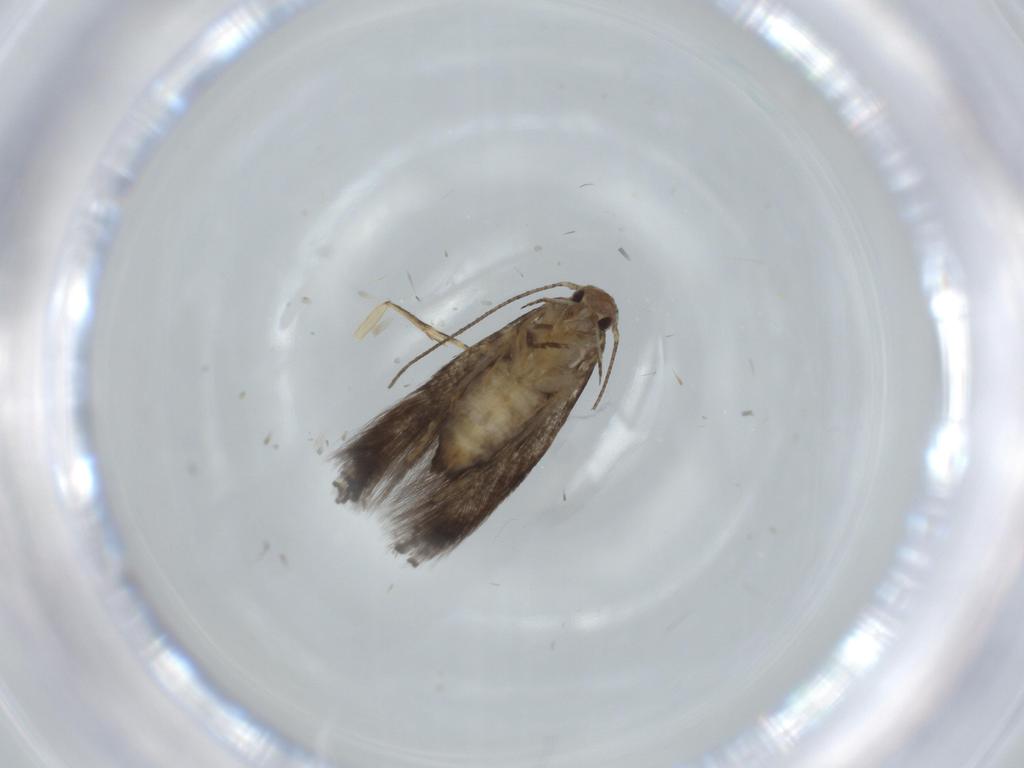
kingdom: Animalia
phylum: Arthropoda
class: Insecta
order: Lepidoptera
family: Gelechiidae
